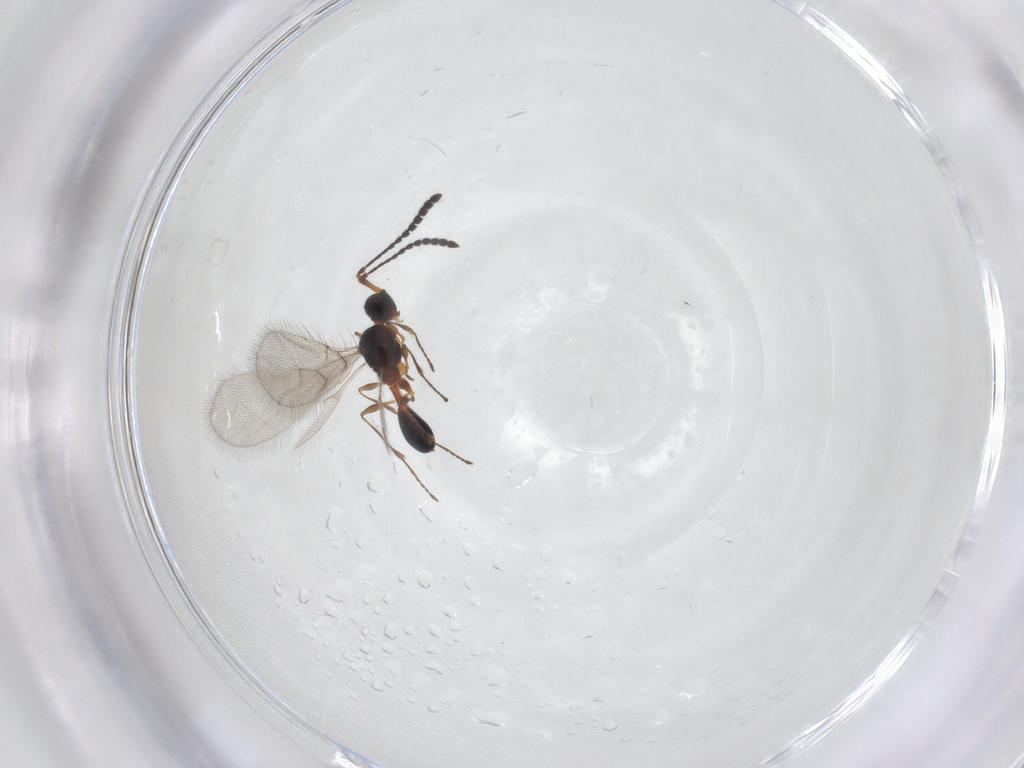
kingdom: Animalia
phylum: Arthropoda
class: Insecta
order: Hymenoptera
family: Diapriidae
